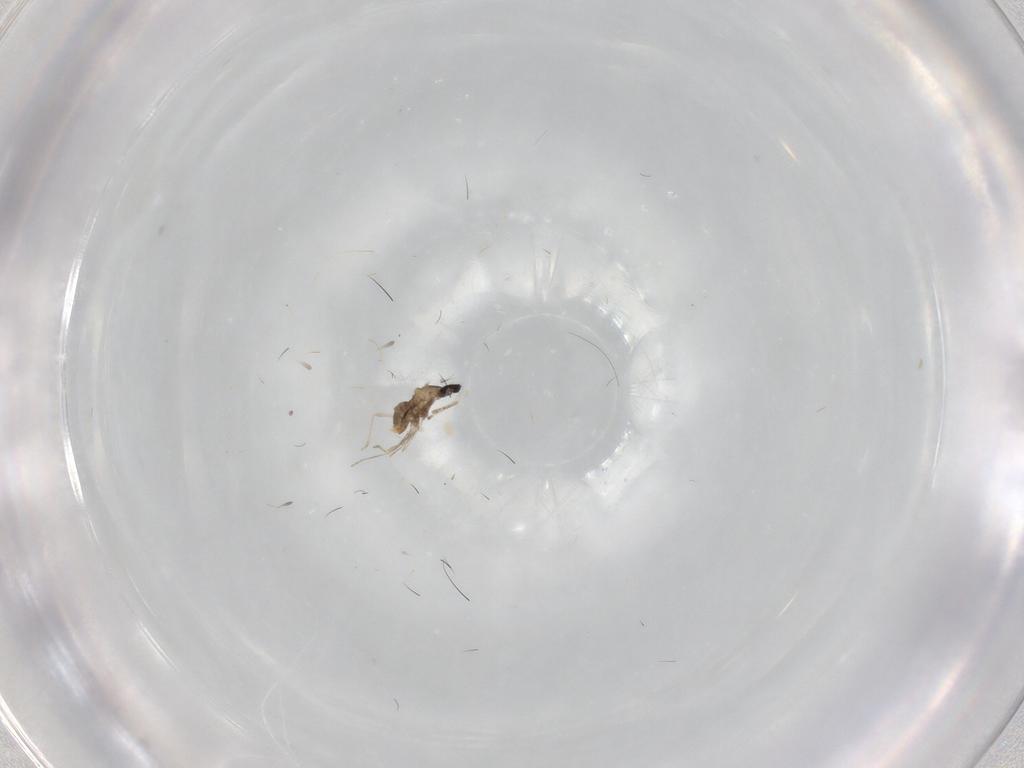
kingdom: Animalia
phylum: Arthropoda
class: Insecta
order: Diptera
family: Cecidomyiidae
